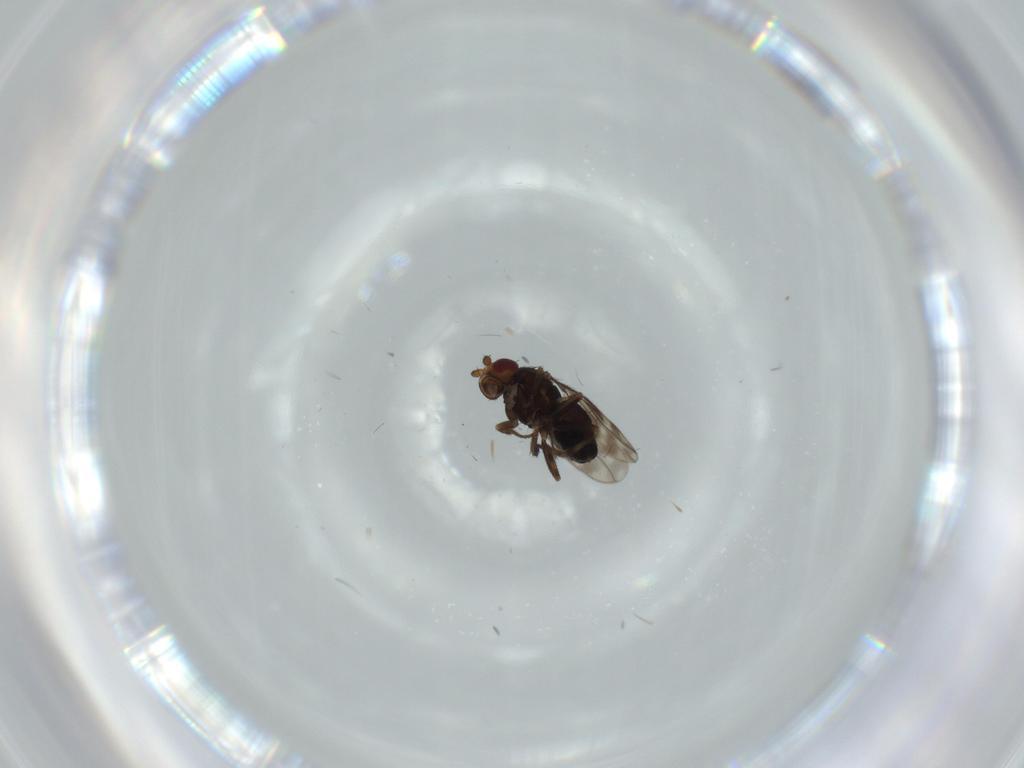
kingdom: Animalia
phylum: Arthropoda
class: Insecta
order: Diptera
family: Sphaeroceridae
